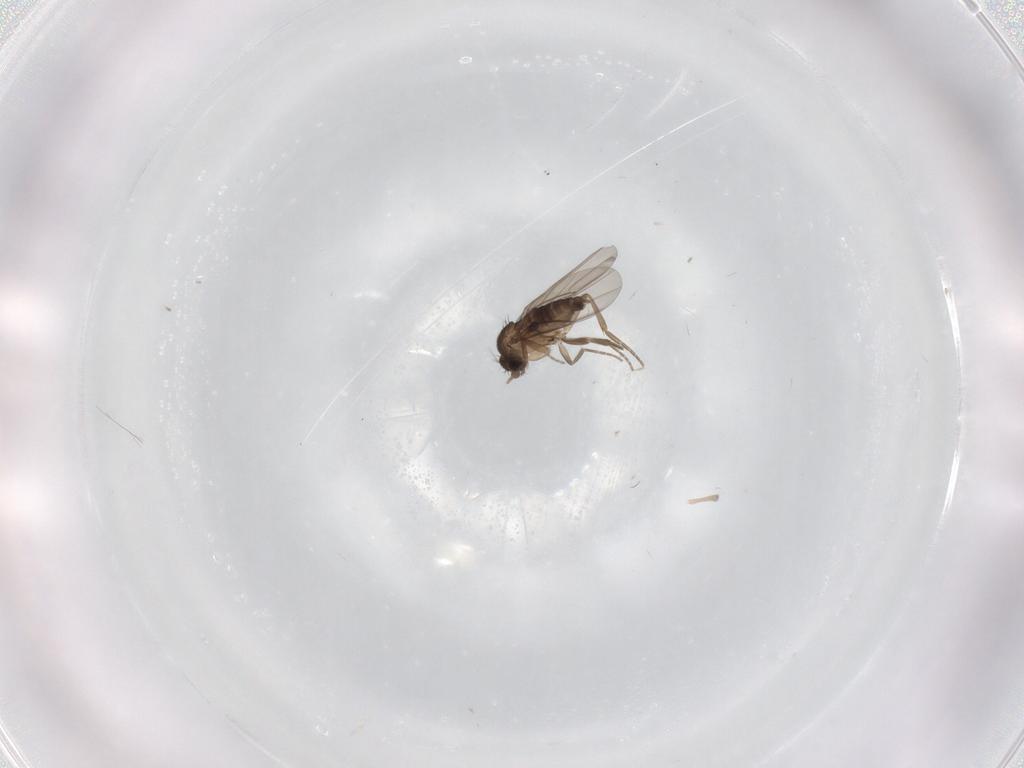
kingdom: Animalia
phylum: Arthropoda
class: Insecta
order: Diptera
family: Phoridae
